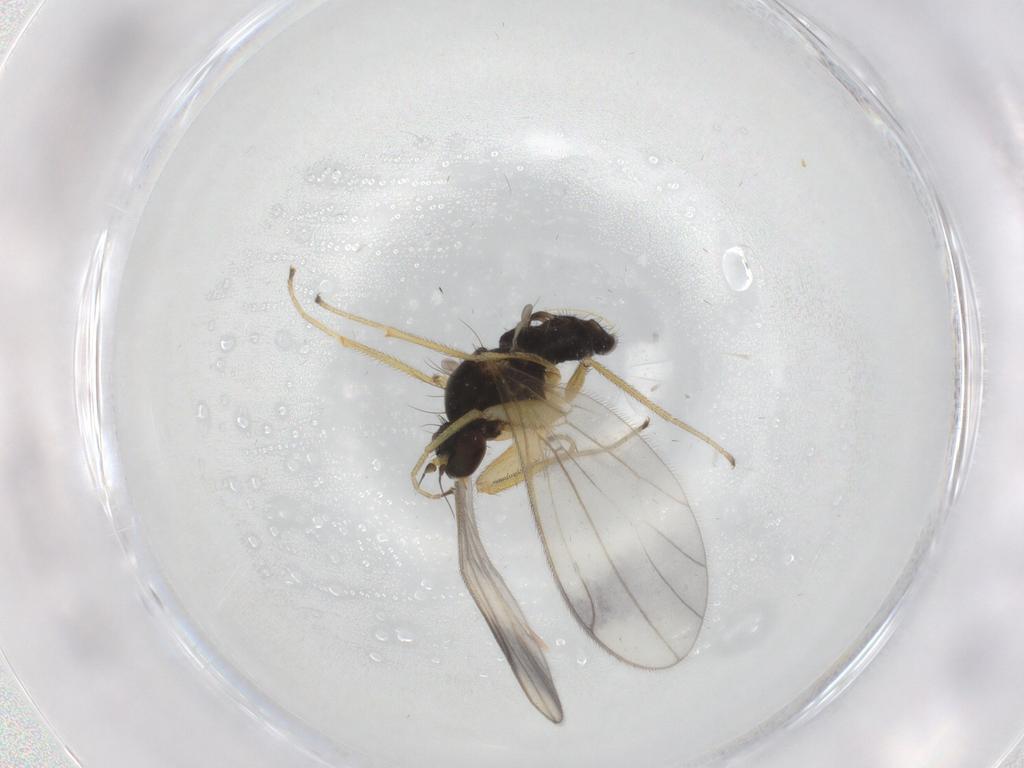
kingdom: Animalia
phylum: Arthropoda
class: Insecta
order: Diptera
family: Empididae
